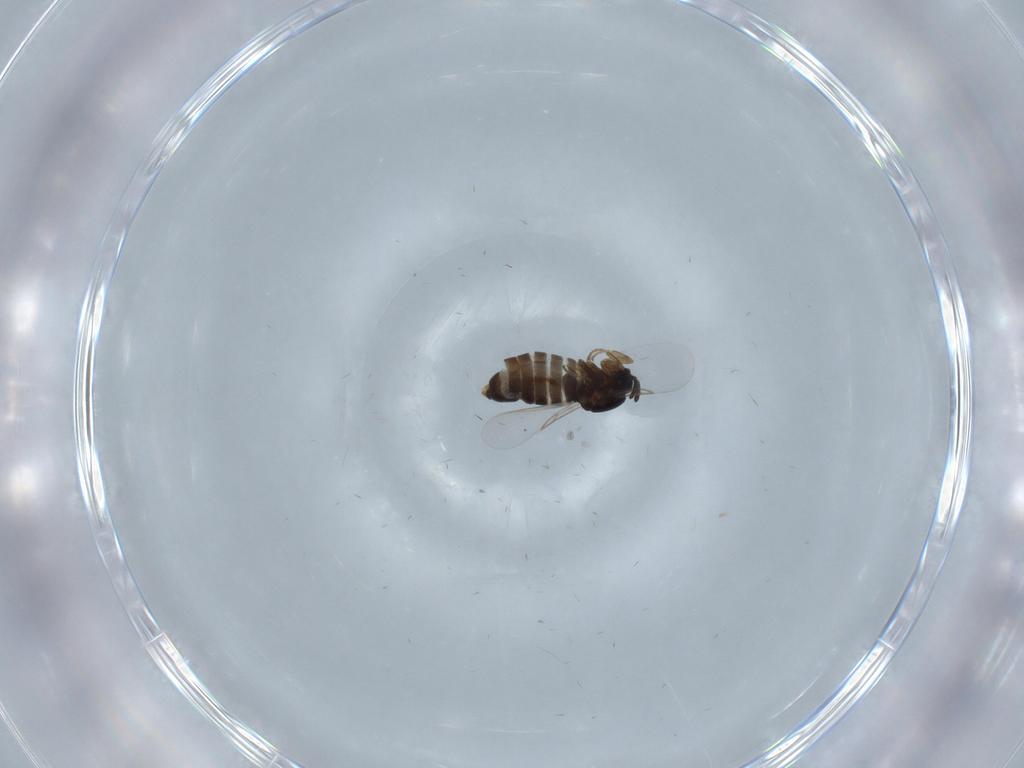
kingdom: Animalia
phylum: Arthropoda
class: Insecta
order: Diptera
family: Scatopsidae
